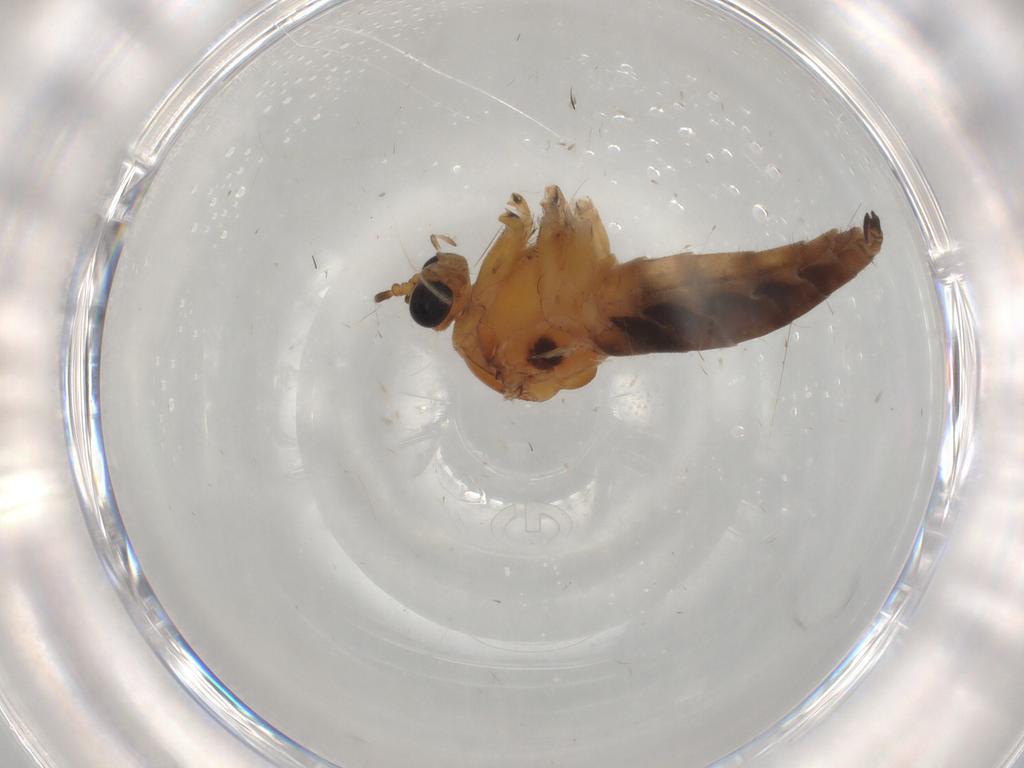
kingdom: Animalia
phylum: Arthropoda
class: Insecta
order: Diptera
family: Sciaridae
